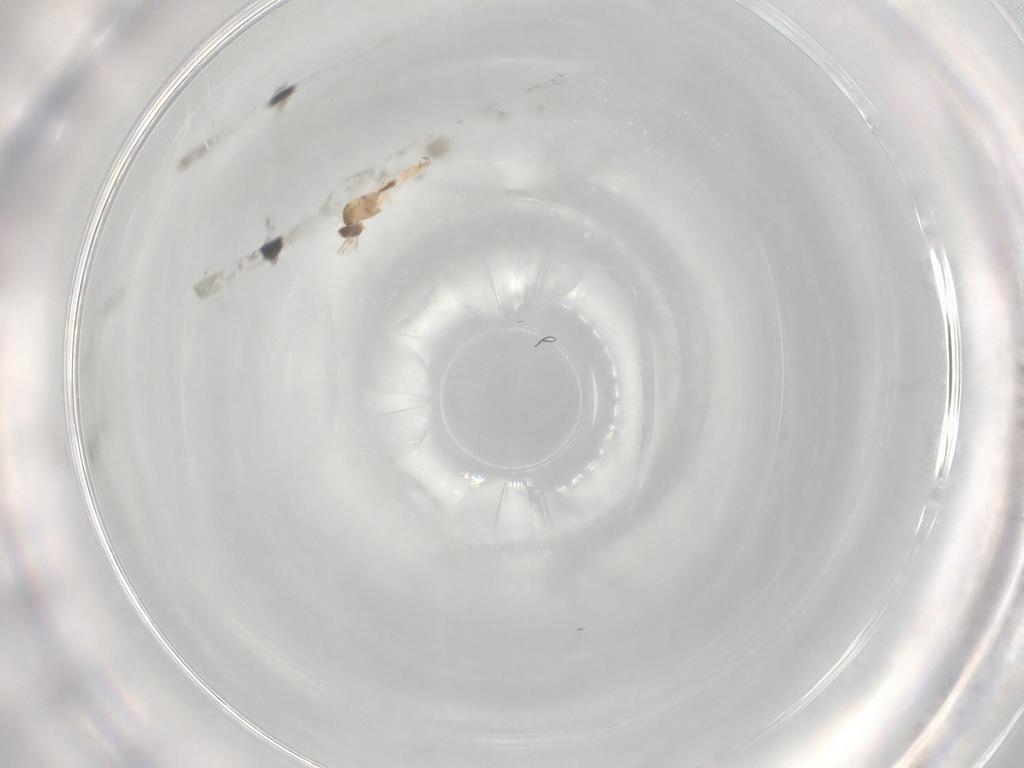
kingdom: Animalia
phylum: Arthropoda
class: Insecta
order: Diptera
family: Cecidomyiidae
